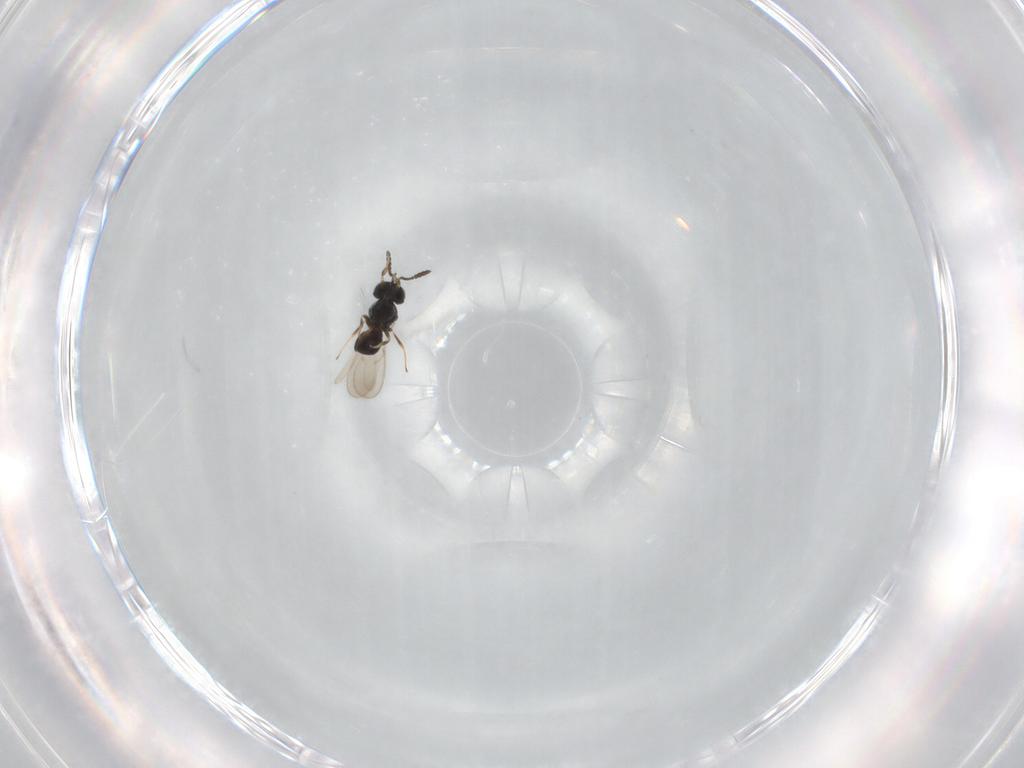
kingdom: Animalia
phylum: Arthropoda
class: Insecta
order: Hymenoptera
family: Scelionidae
